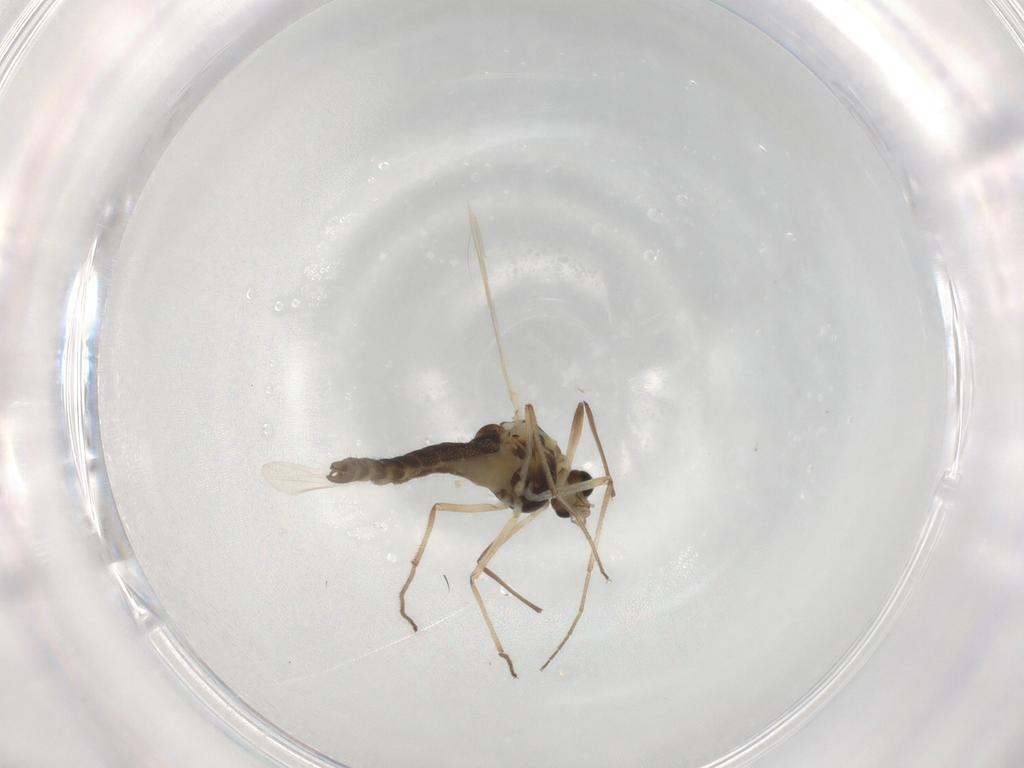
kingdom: Animalia
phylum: Arthropoda
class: Insecta
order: Diptera
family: Chironomidae
